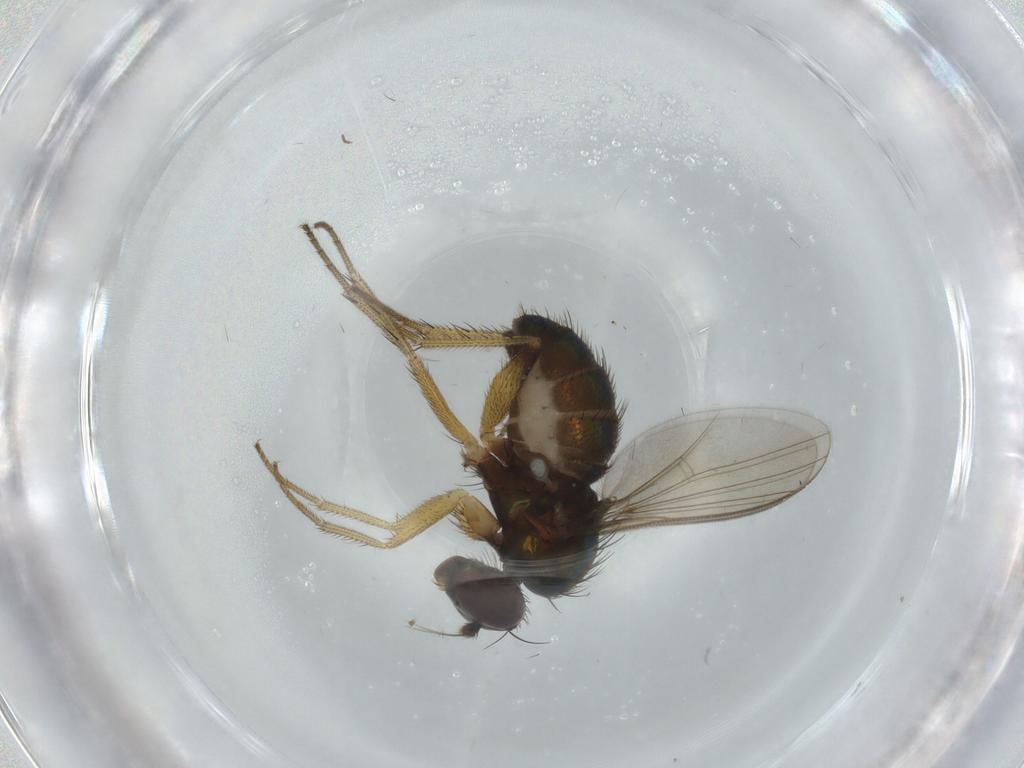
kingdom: Animalia
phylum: Arthropoda
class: Insecta
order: Diptera
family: Dolichopodidae
